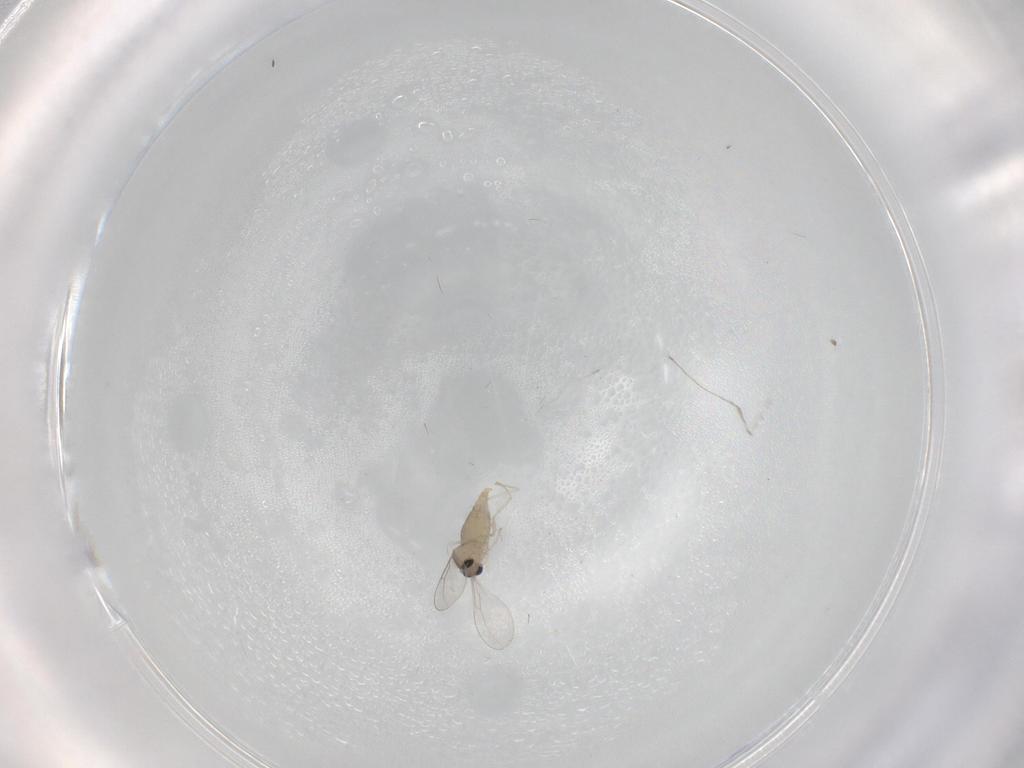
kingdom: Animalia
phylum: Arthropoda
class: Insecta
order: Diptera
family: Cecidomyiidae
